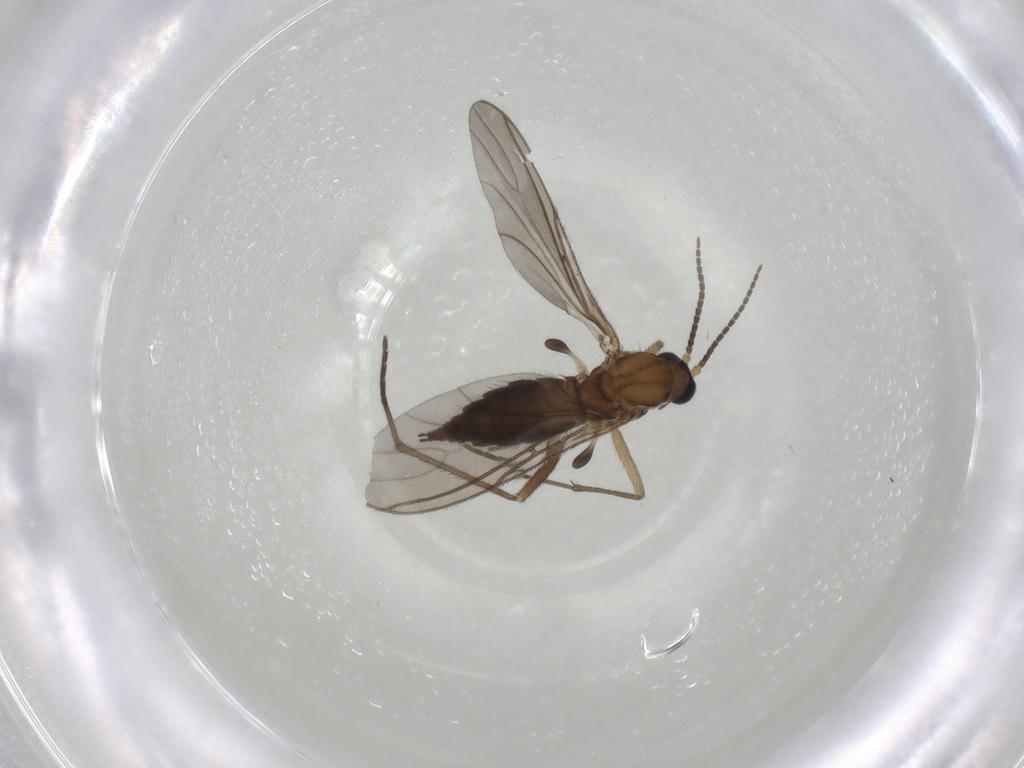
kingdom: Animalia
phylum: Arthropoda
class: Insecta
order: Diptera
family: Sciaridae
